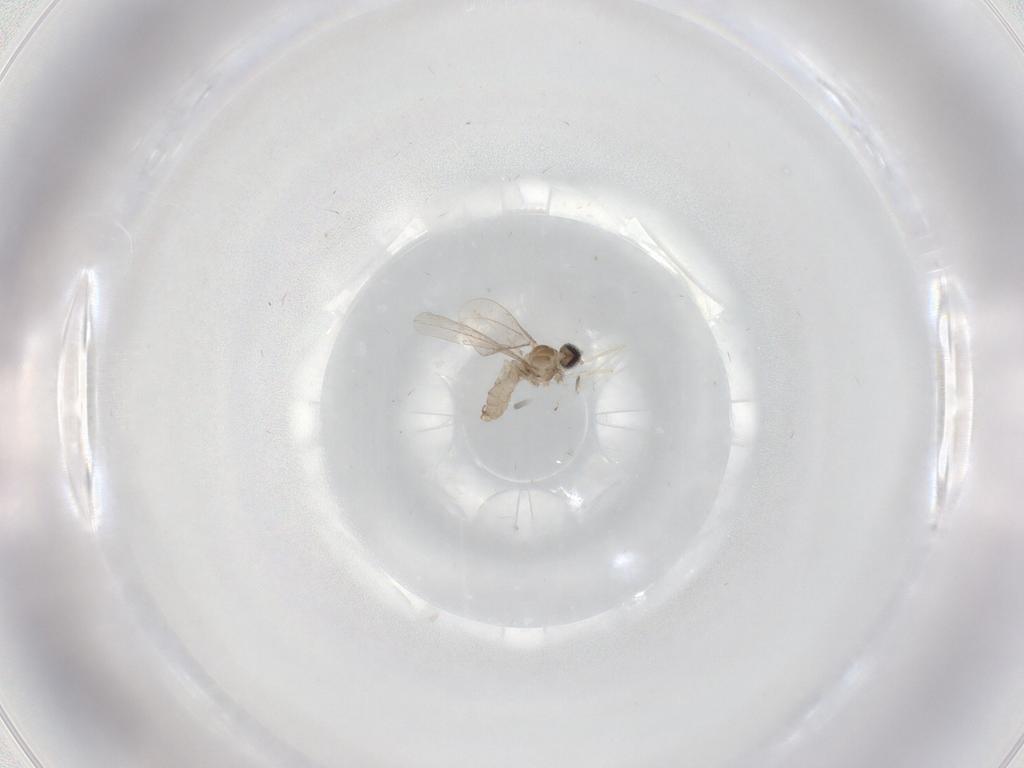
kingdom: Animalia
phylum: Arthropoda
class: Insecta
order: Diptera
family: Cecidomyiidae
